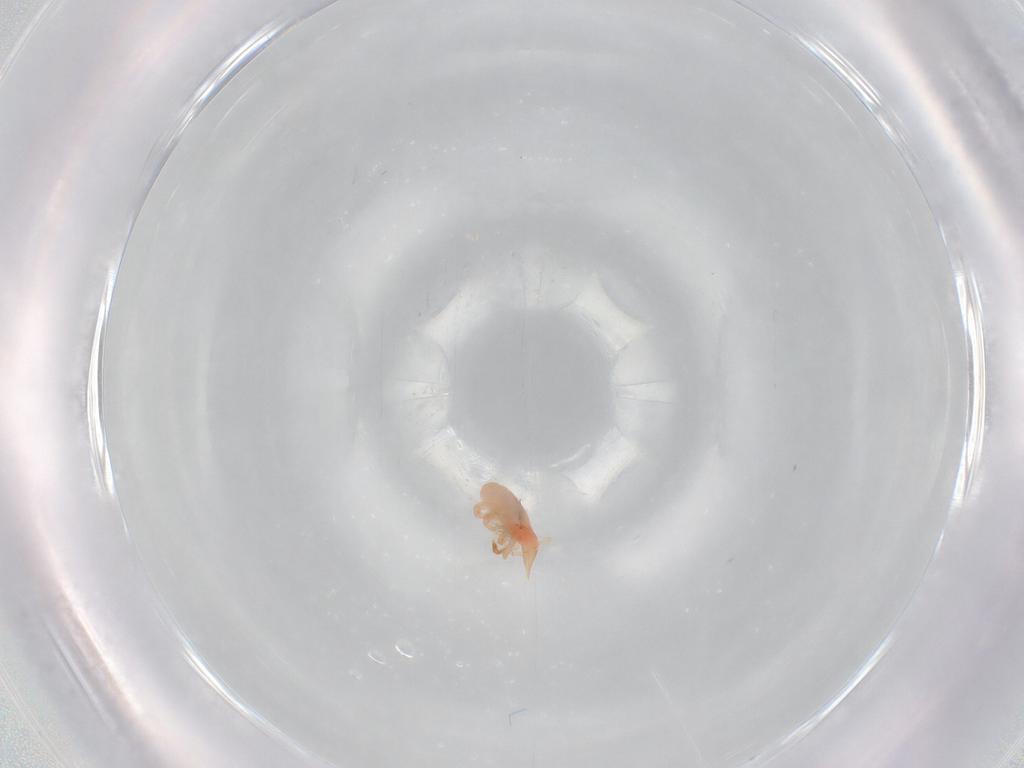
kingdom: Animalia
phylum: Arthropoda
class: Arachnida
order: Trombidiformes
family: Bdellidae
